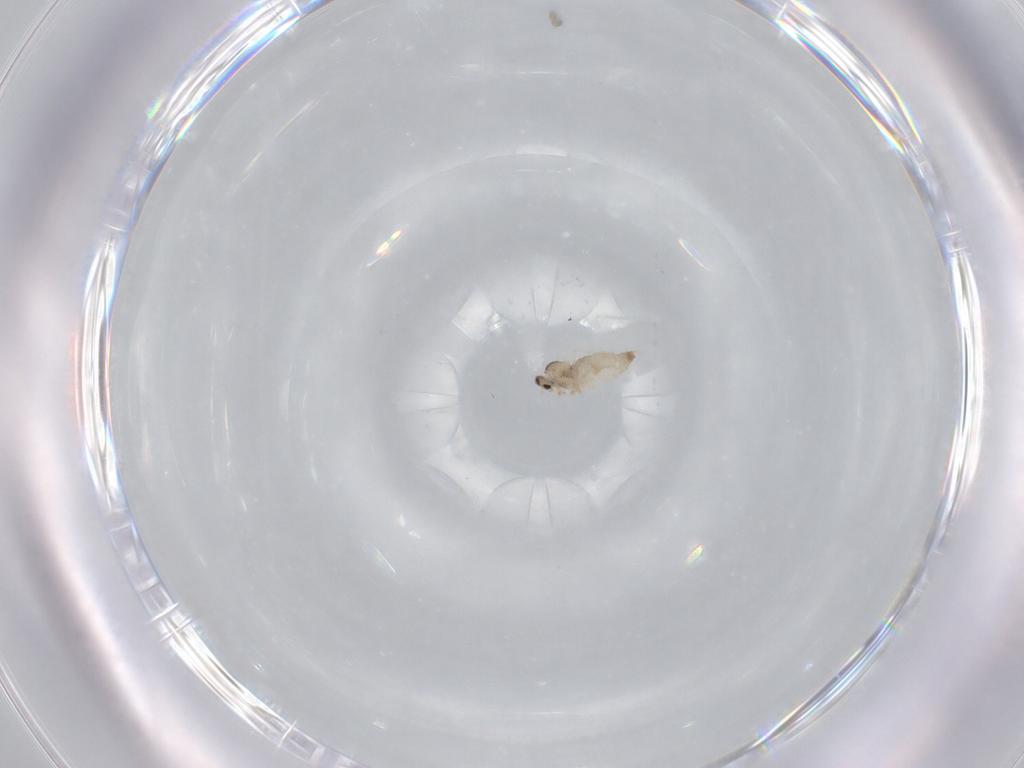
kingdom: Animalia
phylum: Arthropoda
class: Insecta
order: Diptera
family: Cecidomyiidae
